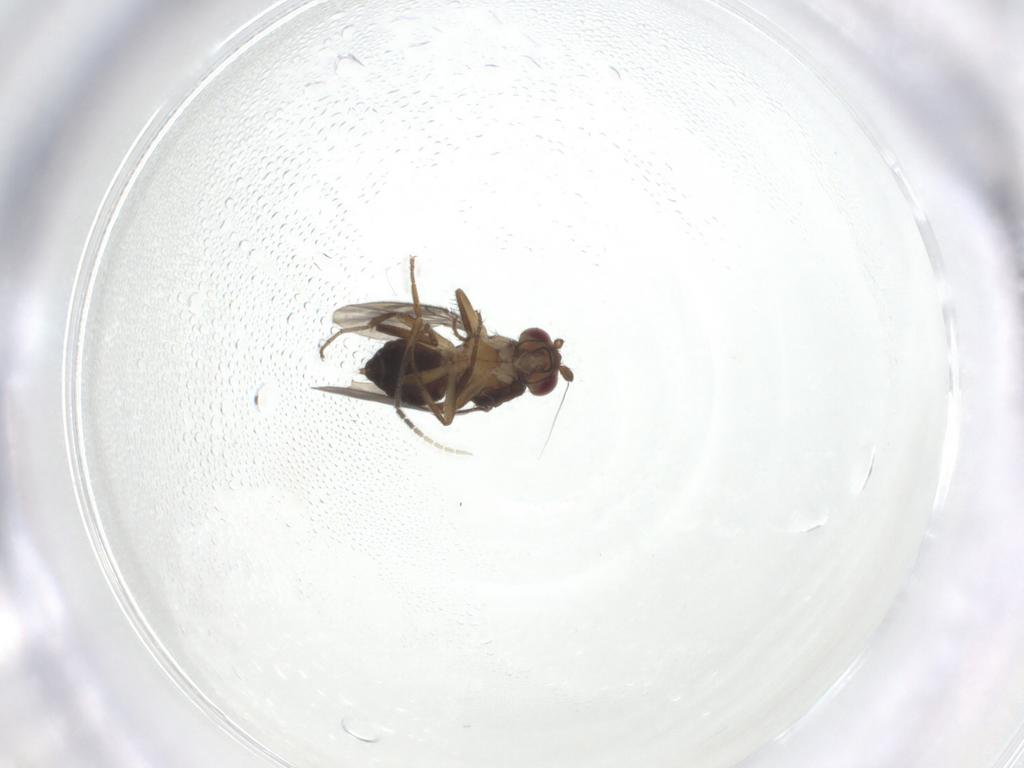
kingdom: Animalia
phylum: Arthropoda
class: Insecta
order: Diptera
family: Sphaeroceridae
